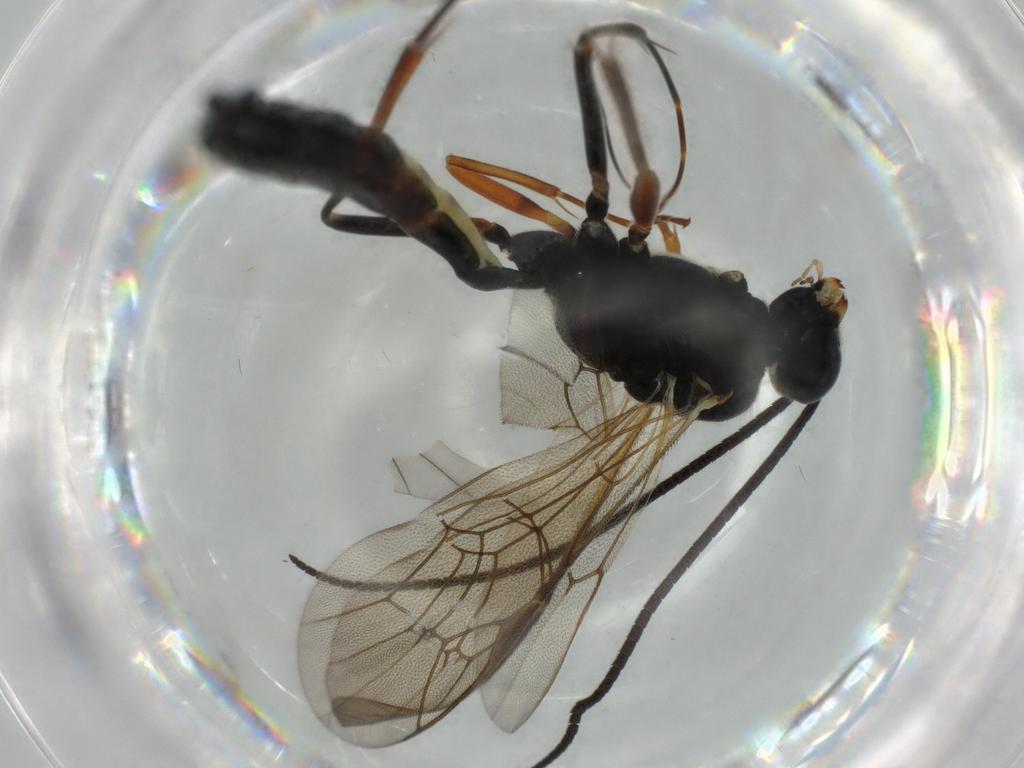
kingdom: Animalia
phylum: Arthropoda
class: Insecta
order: Hymenoptera
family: Ichneumonidae
